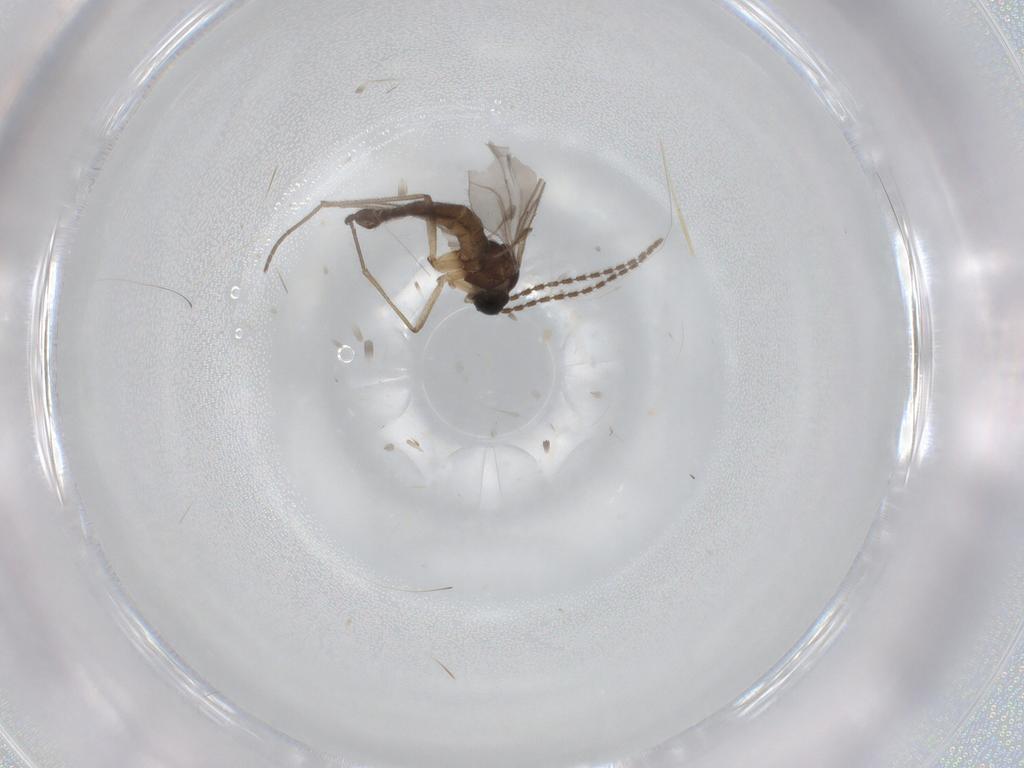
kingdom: Animalia
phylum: Arthropoda
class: Insecta
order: Diptera
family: Sciaridae
